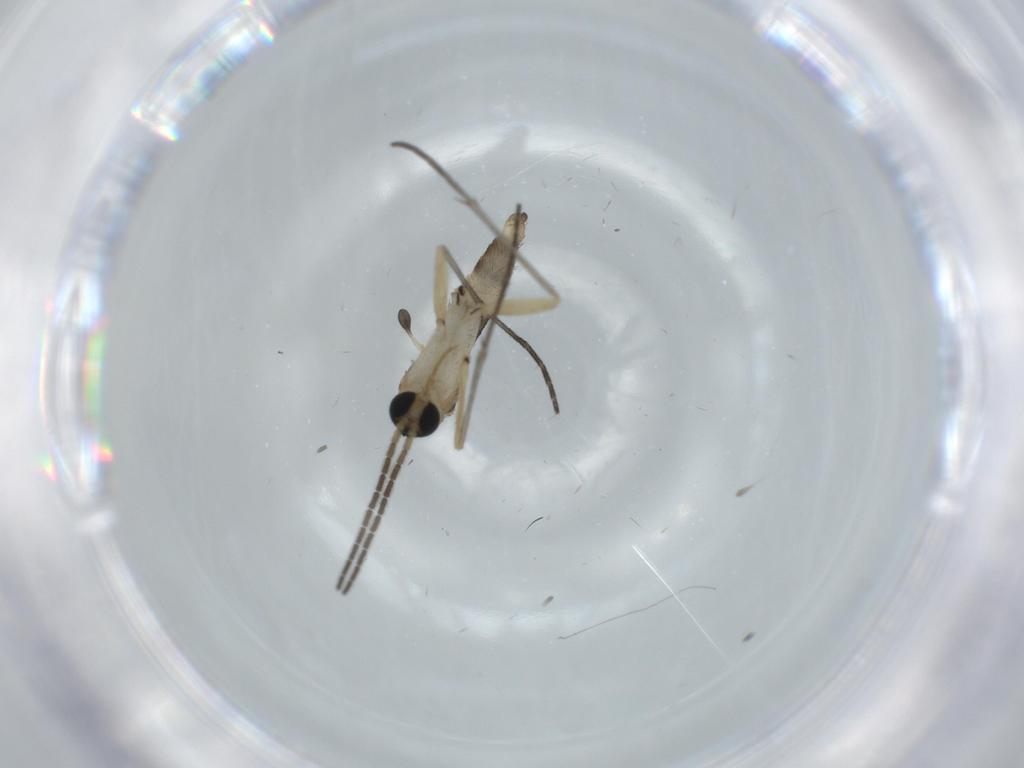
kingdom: Animalia
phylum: Arthropoda
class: Insecta
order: Diptera
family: Sciaridae
